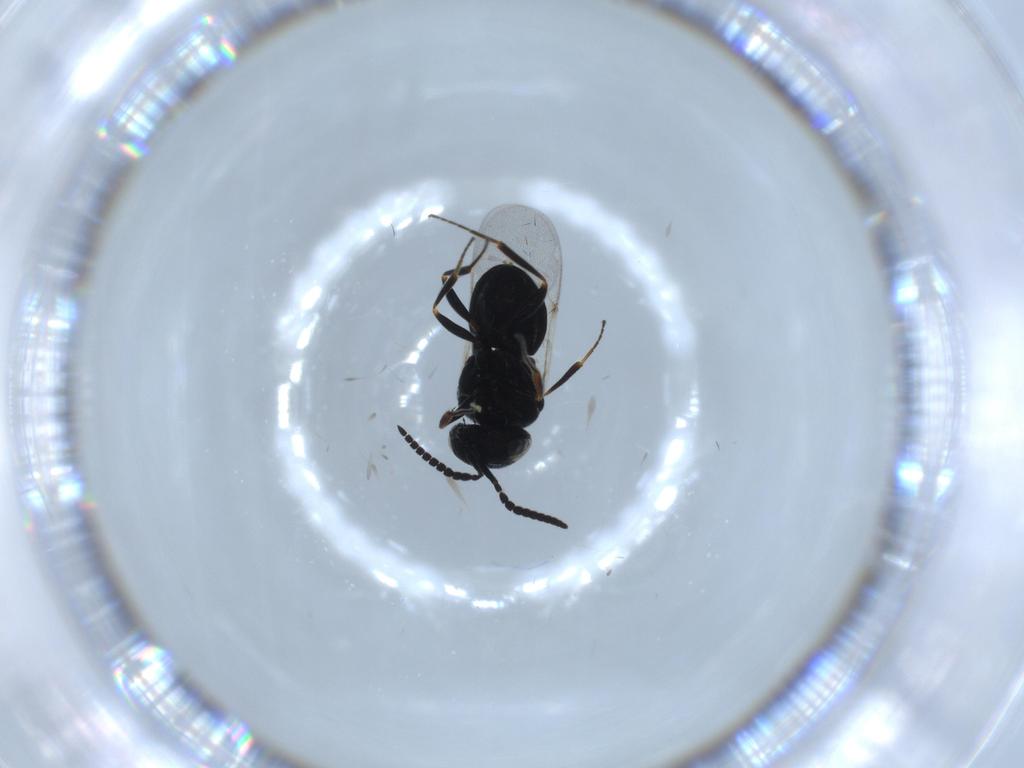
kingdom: Animalia
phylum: Arthropoda
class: Insecta
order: Hymenoptera
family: Scelionidae
